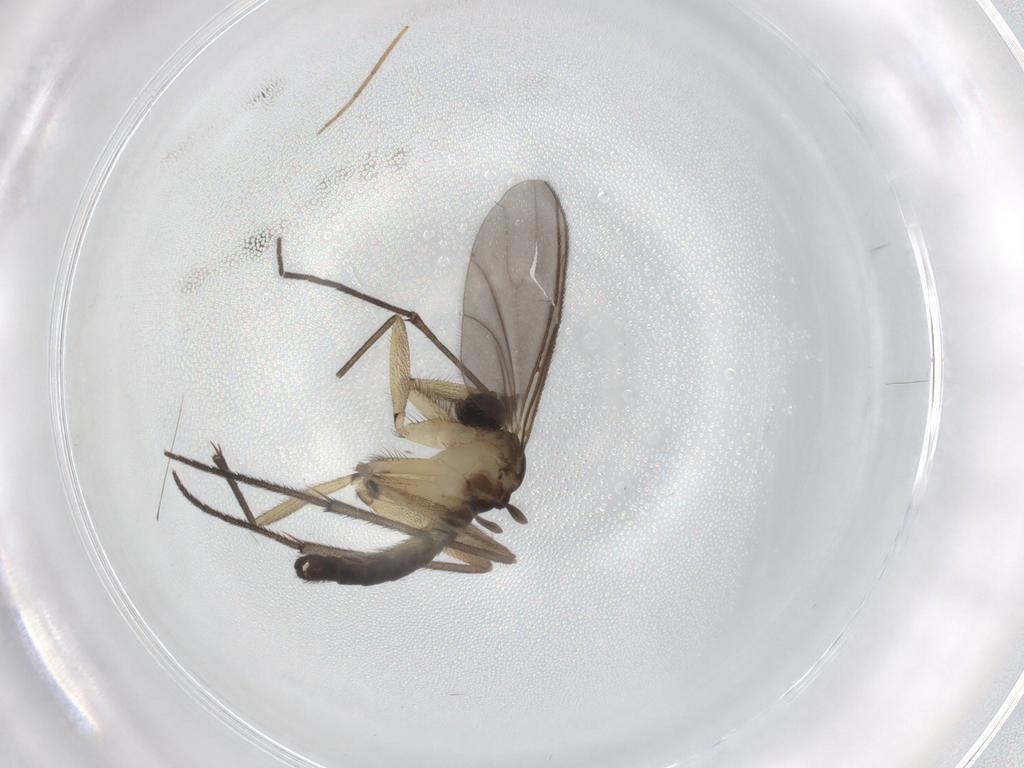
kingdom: Animalia
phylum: Arthropoda
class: Insecta
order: Diptera
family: Sciaridae
